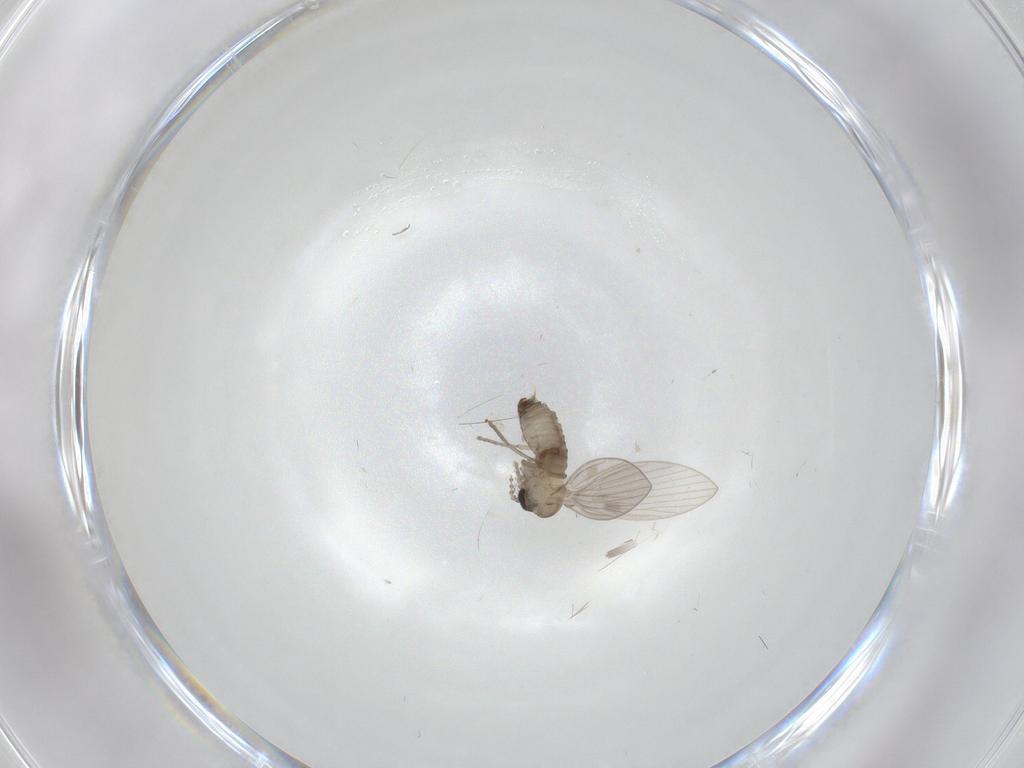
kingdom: Animalia
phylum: Arthropoda
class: Insecta
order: Diptera
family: Psychodidae
